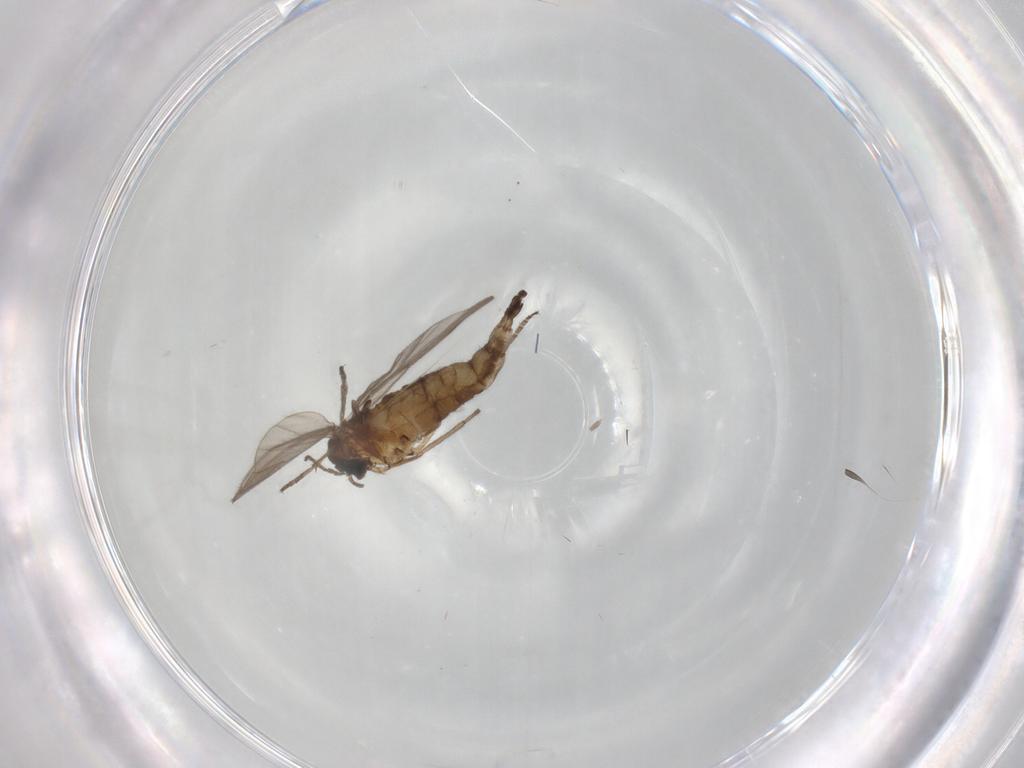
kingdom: Animalia
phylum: Arthropoda
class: Insecta
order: Diptera
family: Sciaridae
